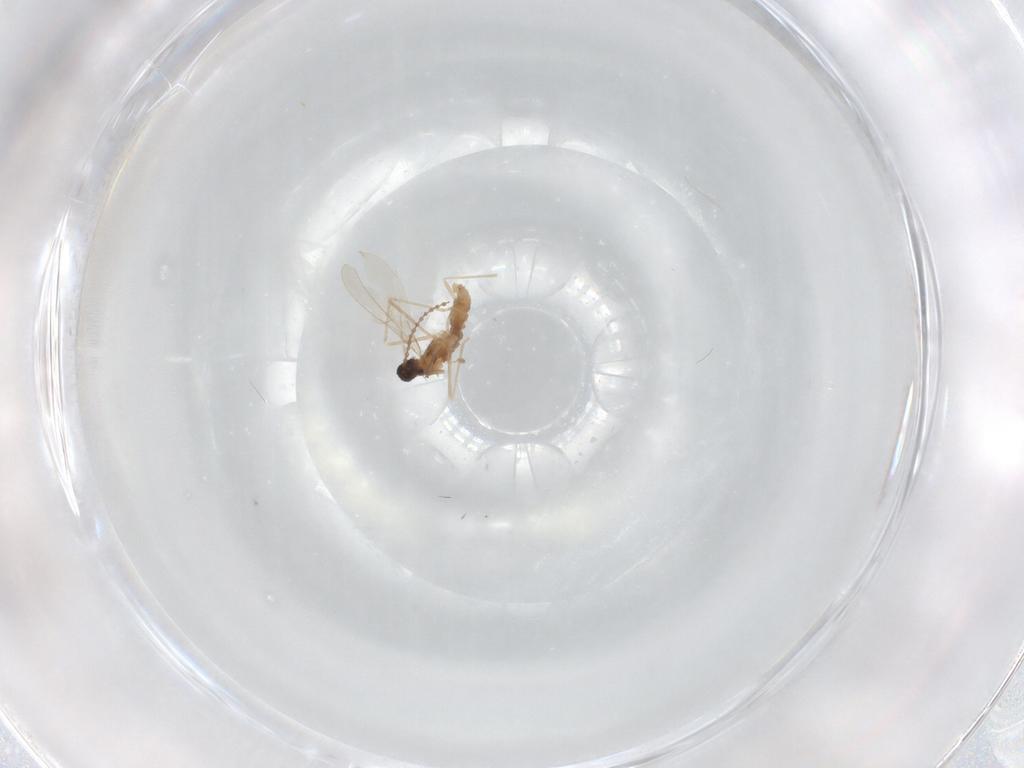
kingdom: Animalia
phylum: Arthropoda
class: Insecta
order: Diptera
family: Cecidomyiidae
